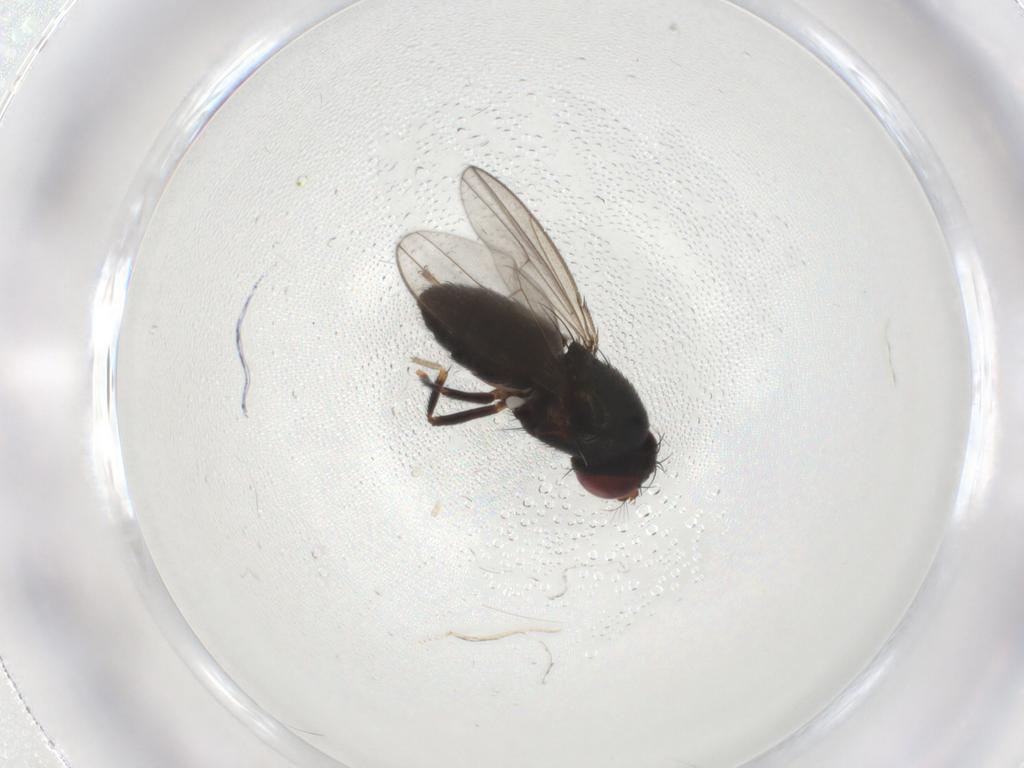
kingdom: Animalia
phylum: Arthropoda
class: Insecta
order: Diptera
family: Ephydridae
